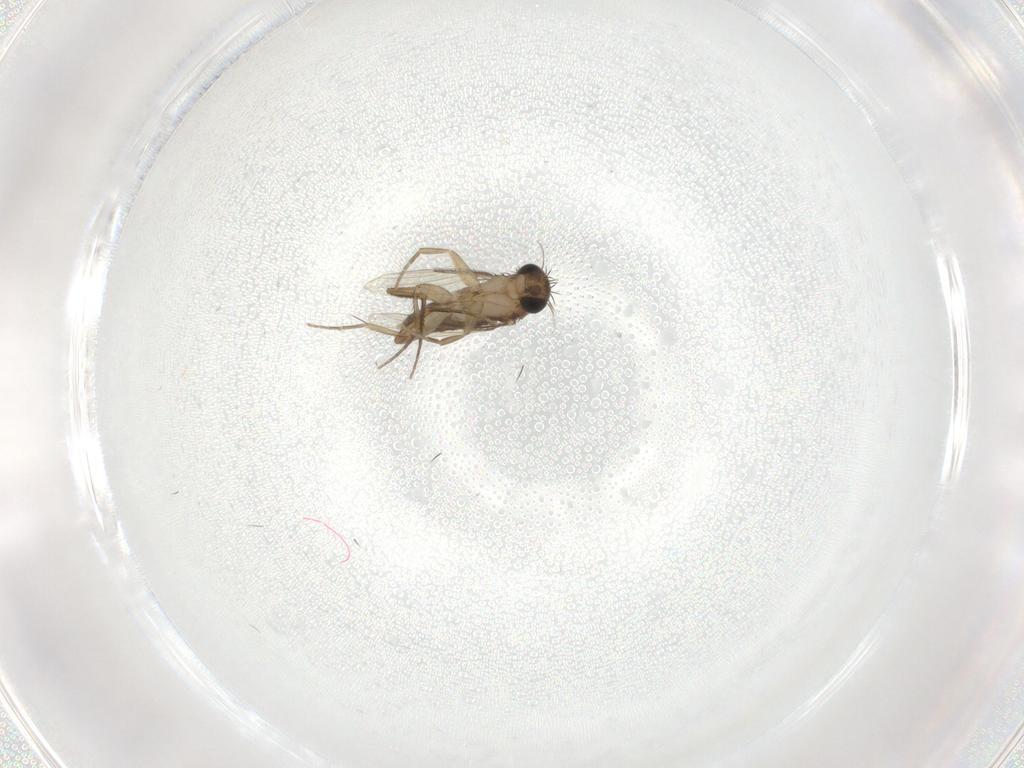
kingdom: Animalia
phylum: Arthropoda
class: Insecta
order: Diptera
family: Phoridae
